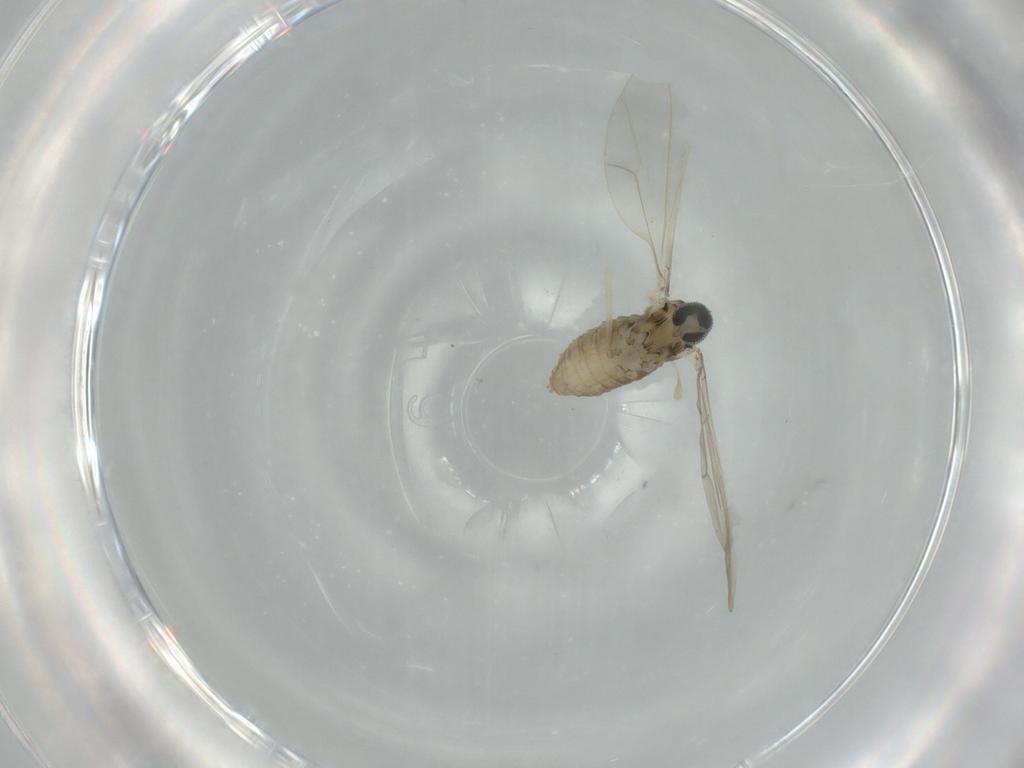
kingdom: Animalia
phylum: Arthropoda
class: Insecta
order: Diptera
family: Cecidomyiidae
